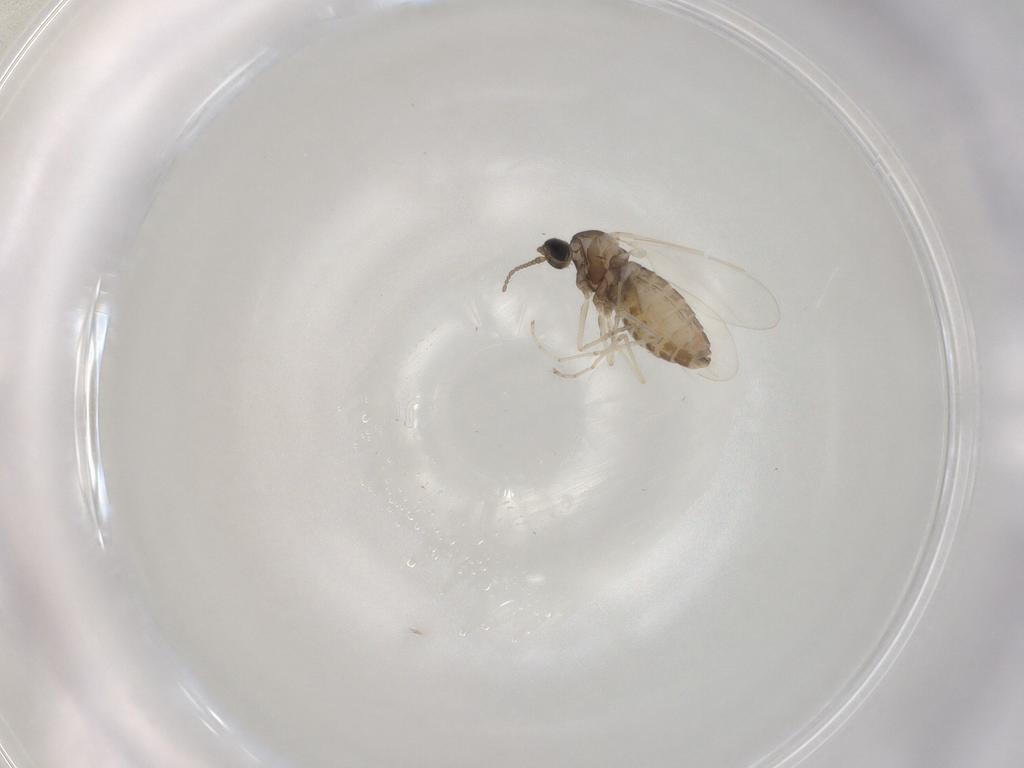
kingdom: Animalia
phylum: Arthropoda
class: Insecta
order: Diptera
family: Cecidomyiidae
